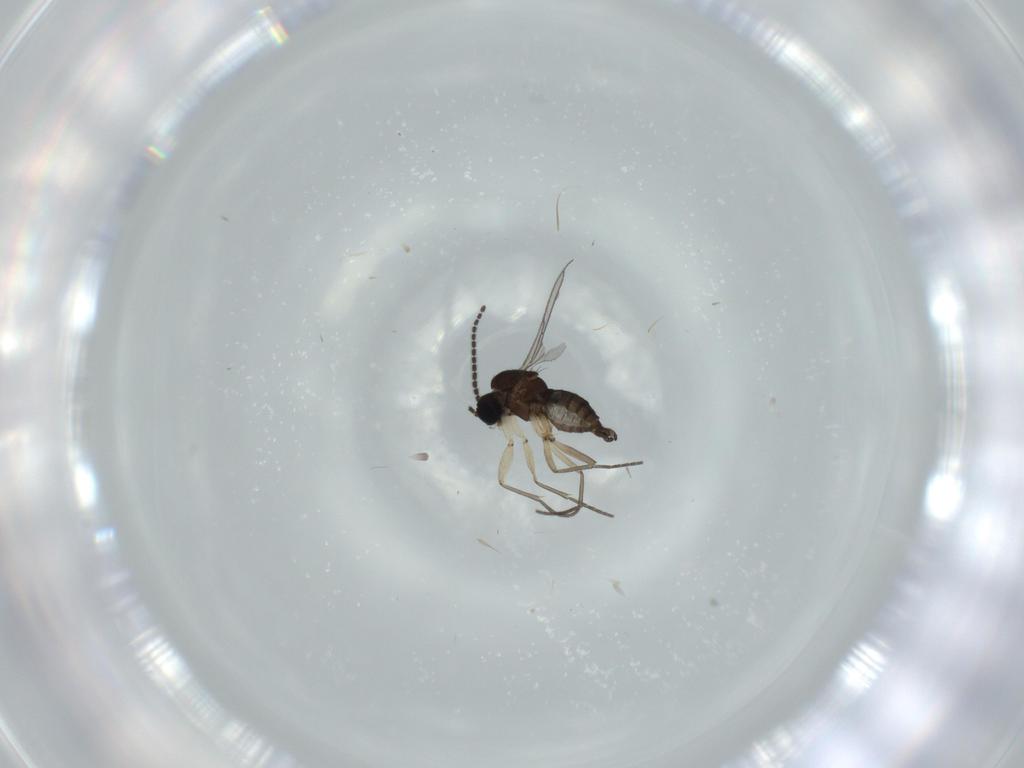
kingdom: Animalia
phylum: Arthropoda
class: Insecta
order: Diptera
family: Sciaridae
